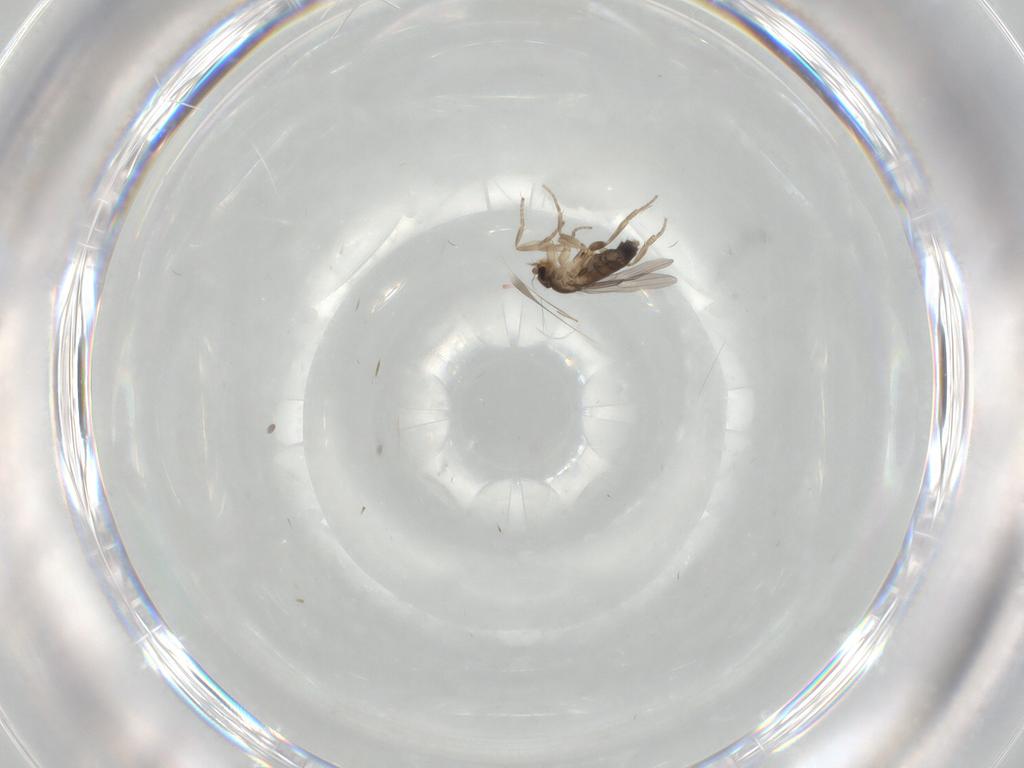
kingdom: Animalia
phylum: Arthropoda
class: Insecta
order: Diptera
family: Phoridae
